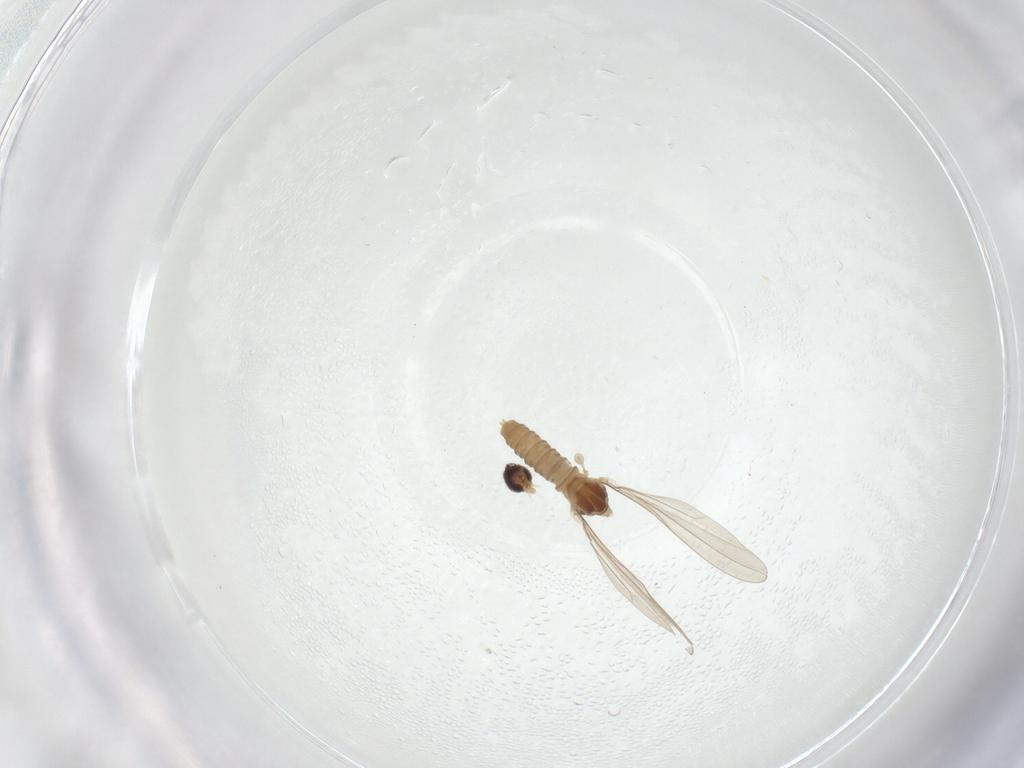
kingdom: Animalia
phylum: Arthropoda
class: Insecta
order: Diptera
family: Cecidomyiidae
